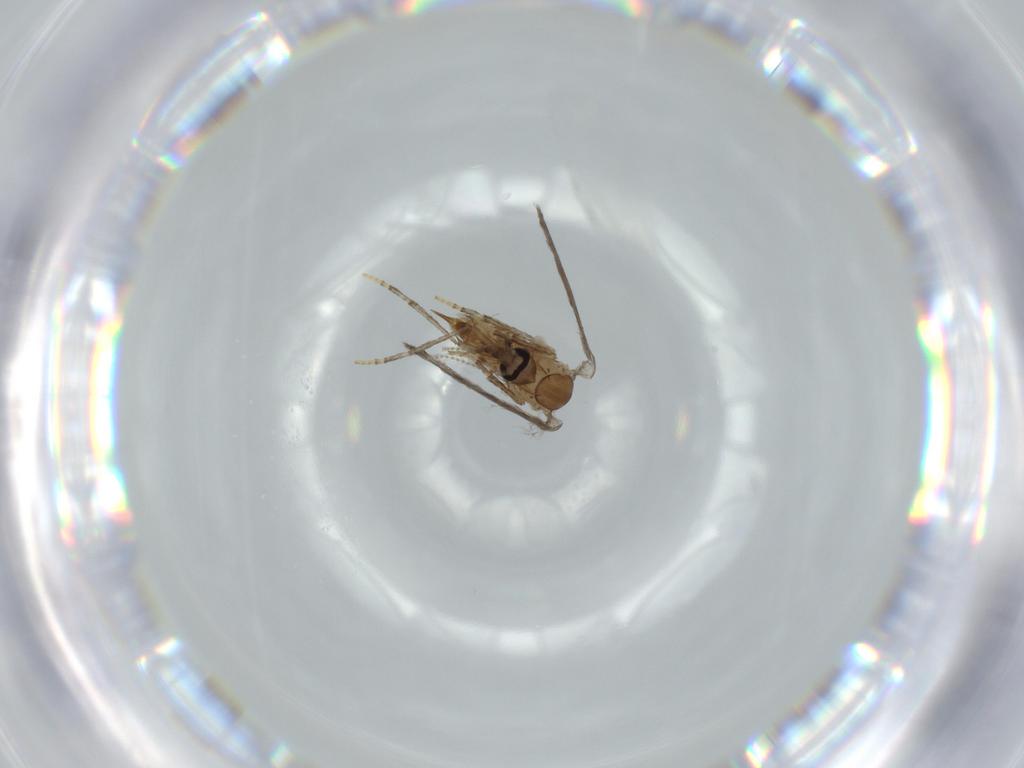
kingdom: Animalia
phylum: Arthropoda
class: Insecta
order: Diptera
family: Psychodidae
